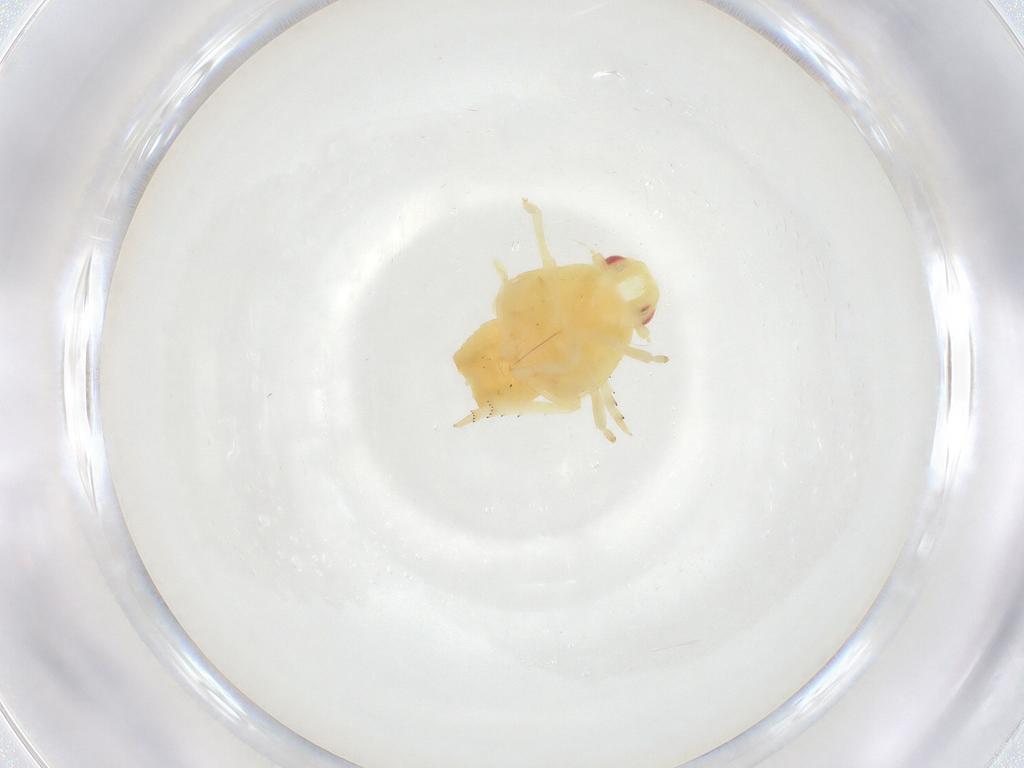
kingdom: Animalia
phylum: Arthropoda
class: Insecta
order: Hemiptera
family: Flatidae
